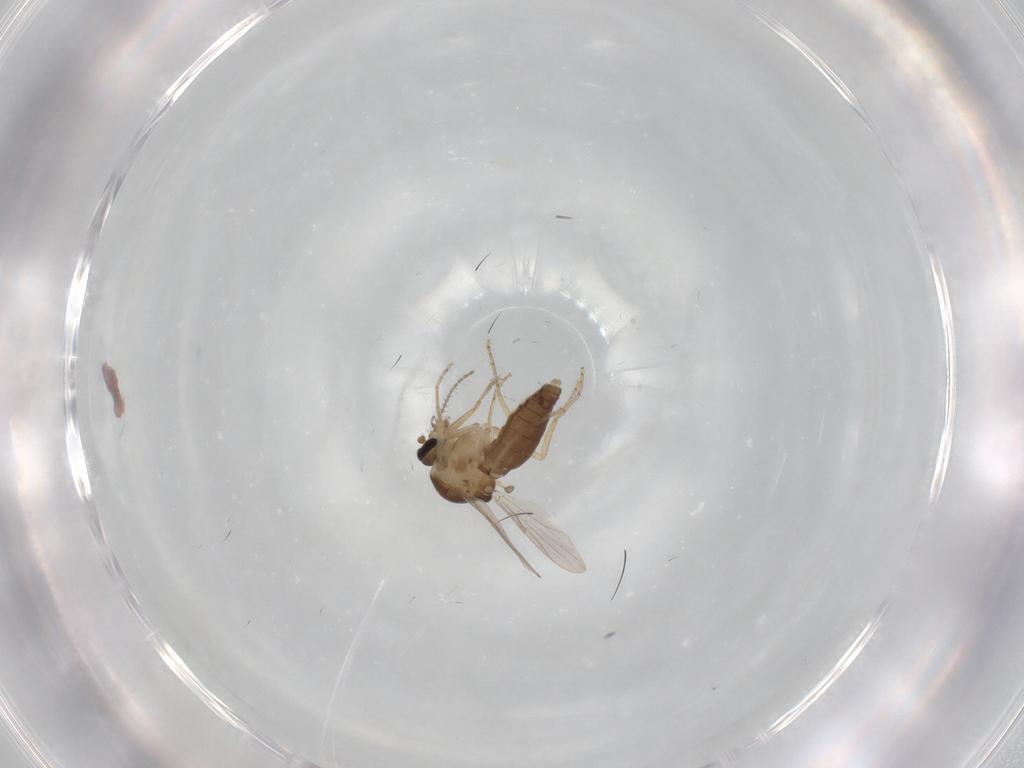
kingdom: Animalia
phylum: Arthropoda
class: Insecta
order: Diptera
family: Ceratopogonidae
